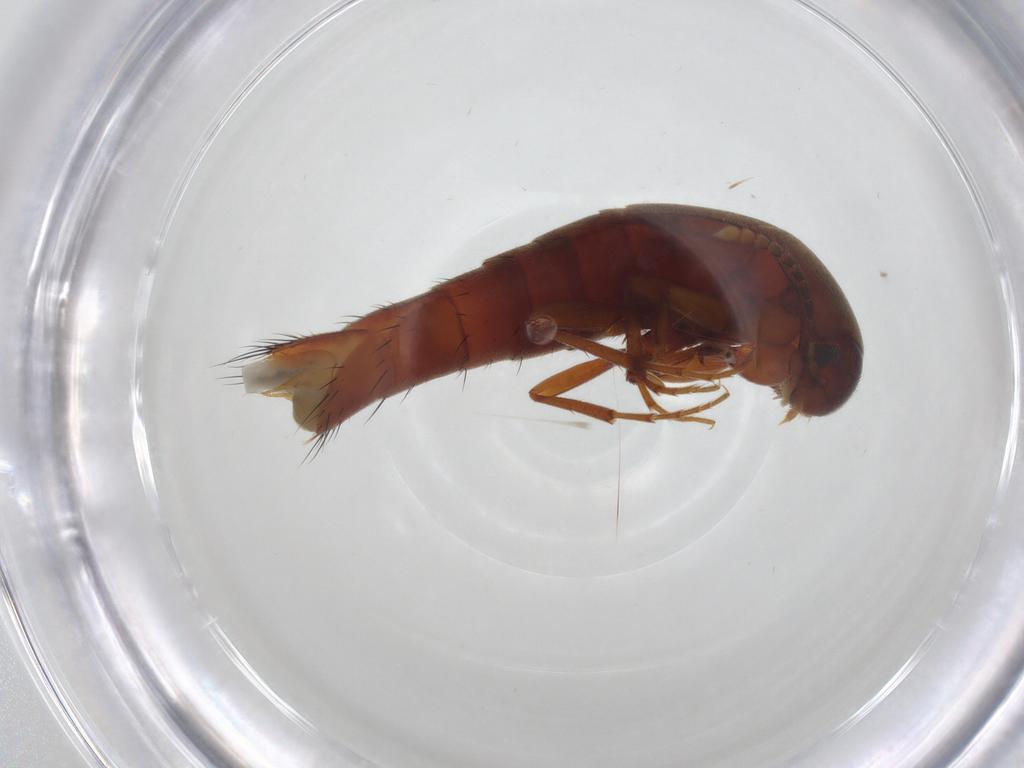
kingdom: Animalia
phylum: Arthropoda
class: Insecta
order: Coleoptera
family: Staphylinidae
